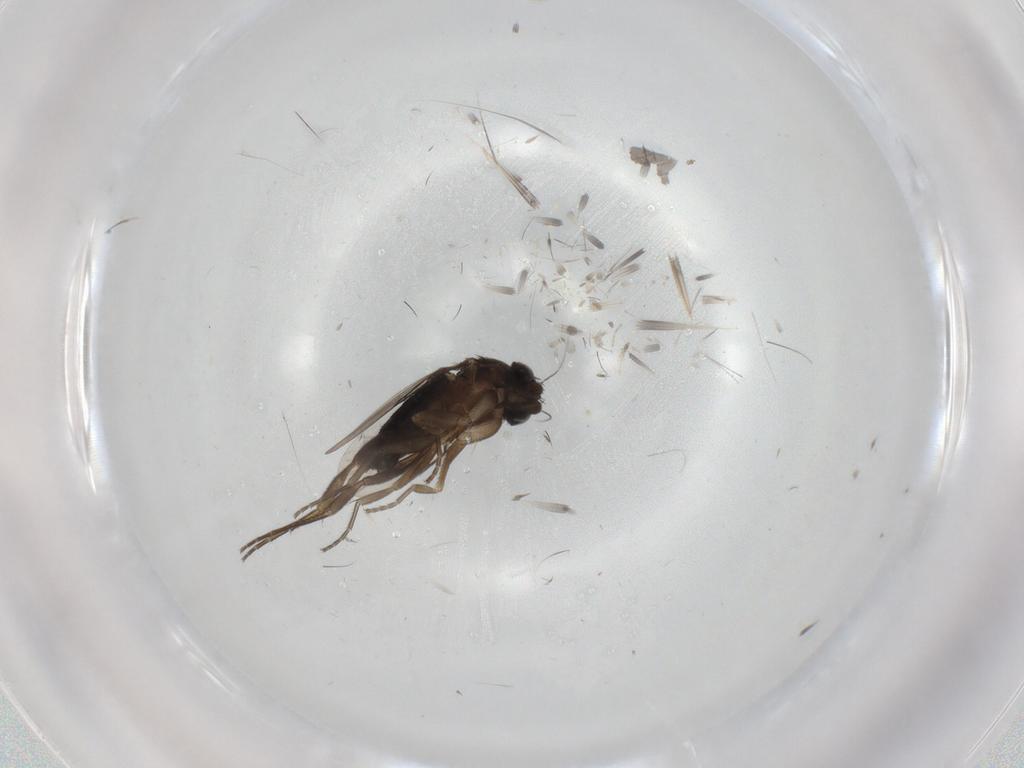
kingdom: Animalia
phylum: Arthropoda
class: Insecta
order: Diptera
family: Phoridae
